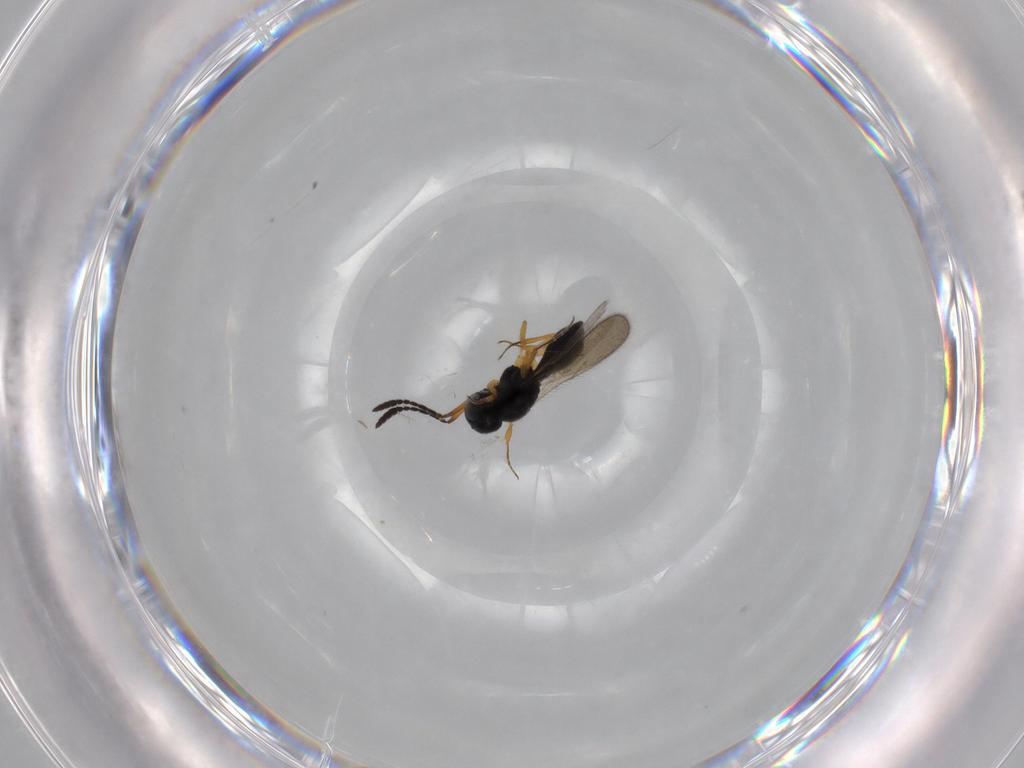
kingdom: Animalia
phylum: Arthropoda
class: Insecta
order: Hymenoptera
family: Scelionidae
